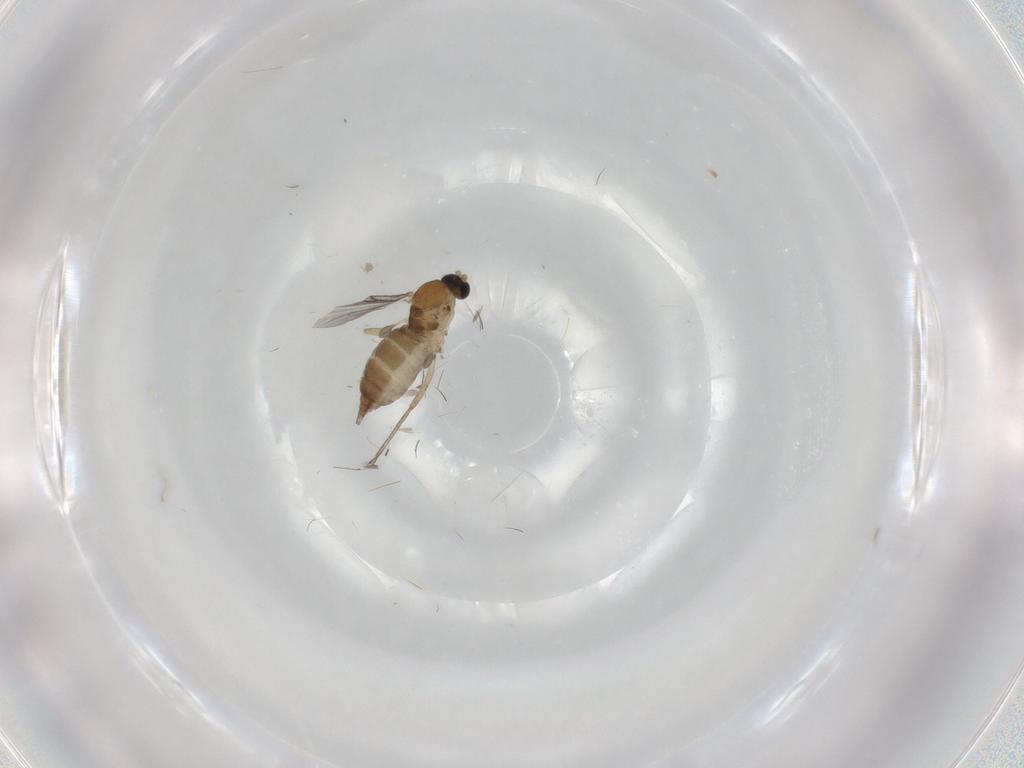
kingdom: Animalia
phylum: Arthropoda
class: Insecta
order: Diptera
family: Sciaridae
